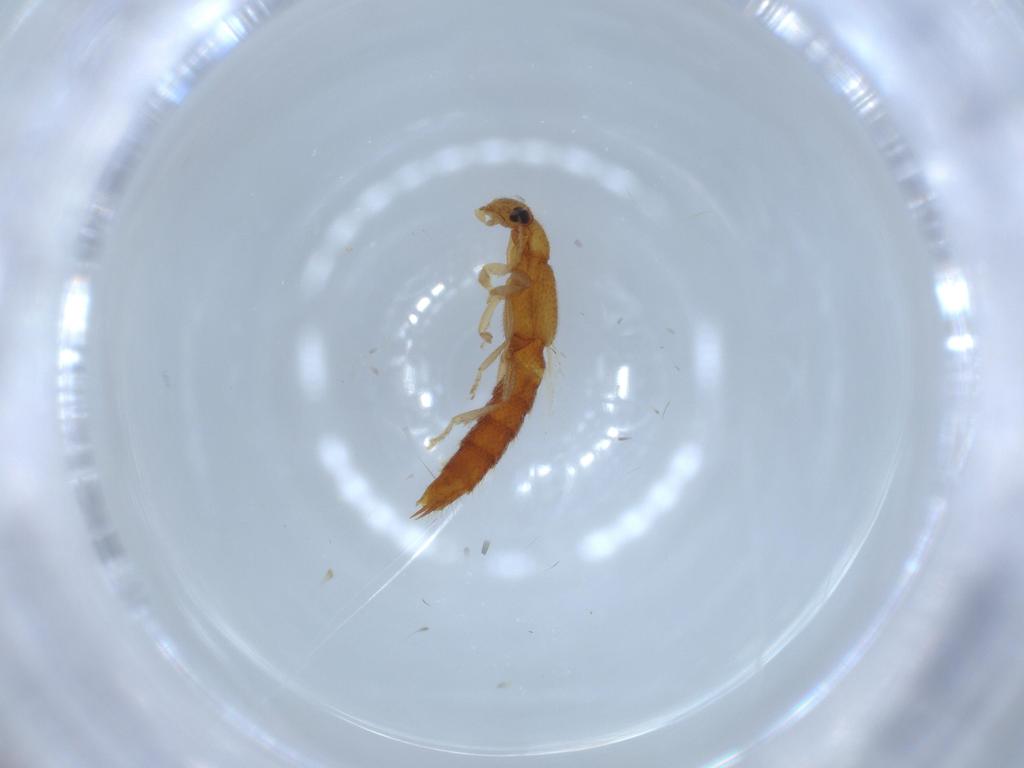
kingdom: Animalia
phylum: Arthropoda
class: Insecta
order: Coleoptera
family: Staphylinidae
